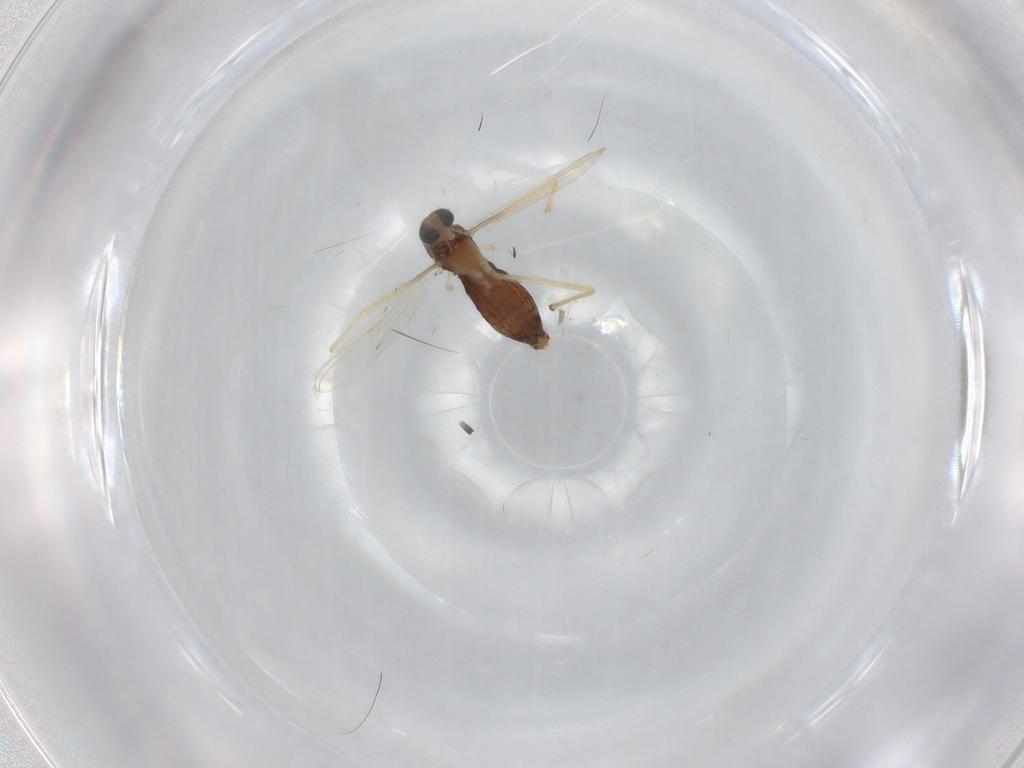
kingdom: Animalia
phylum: Arthropoda
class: Insecta
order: Diptera
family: Chironomidae
